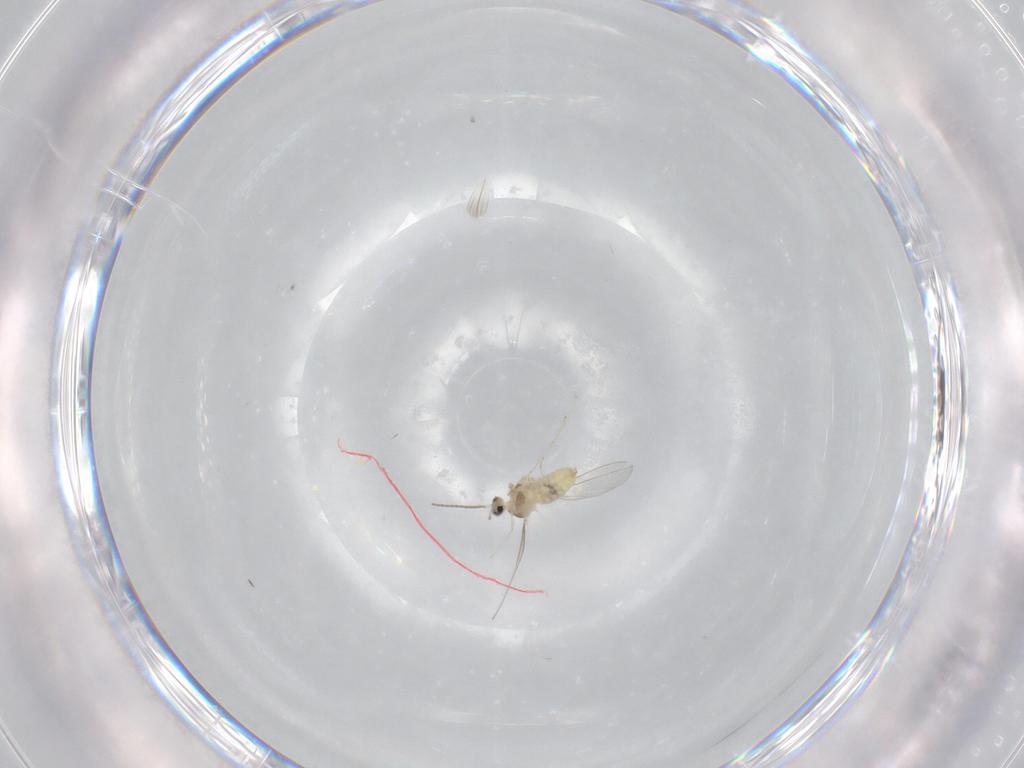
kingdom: Animalia
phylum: Arthropoda
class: Insecta
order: Diptera
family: Cecidomyiidae
